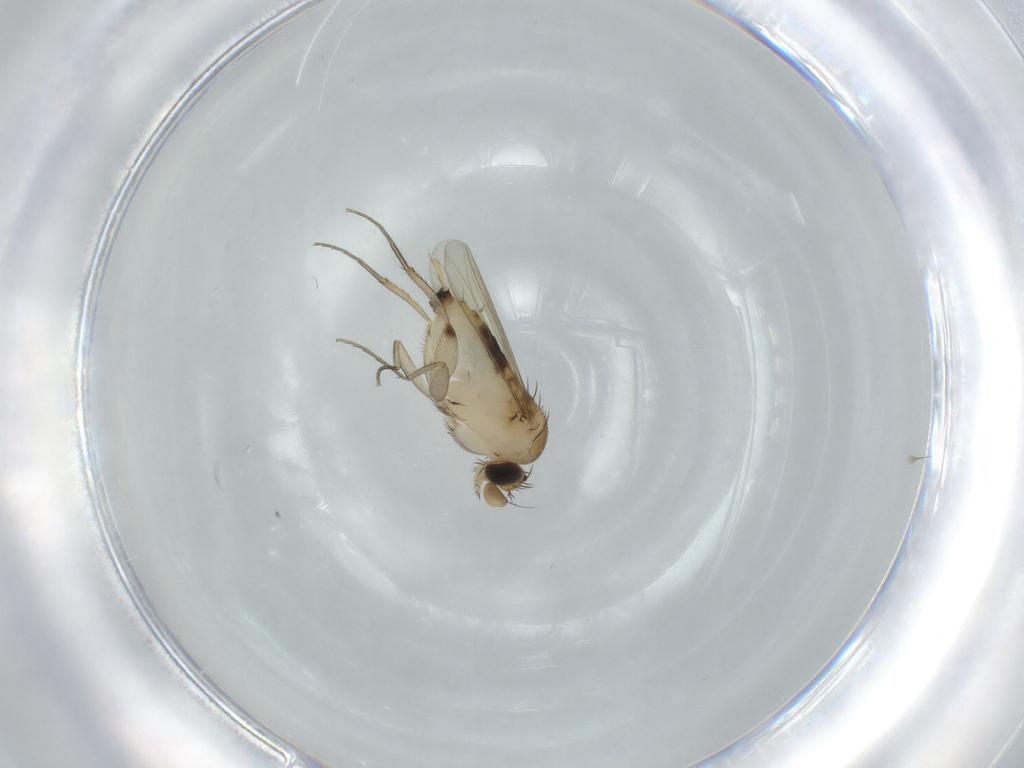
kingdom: Animalia
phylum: Arthropoda
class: Insecta
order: Diptera
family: Phoridae
